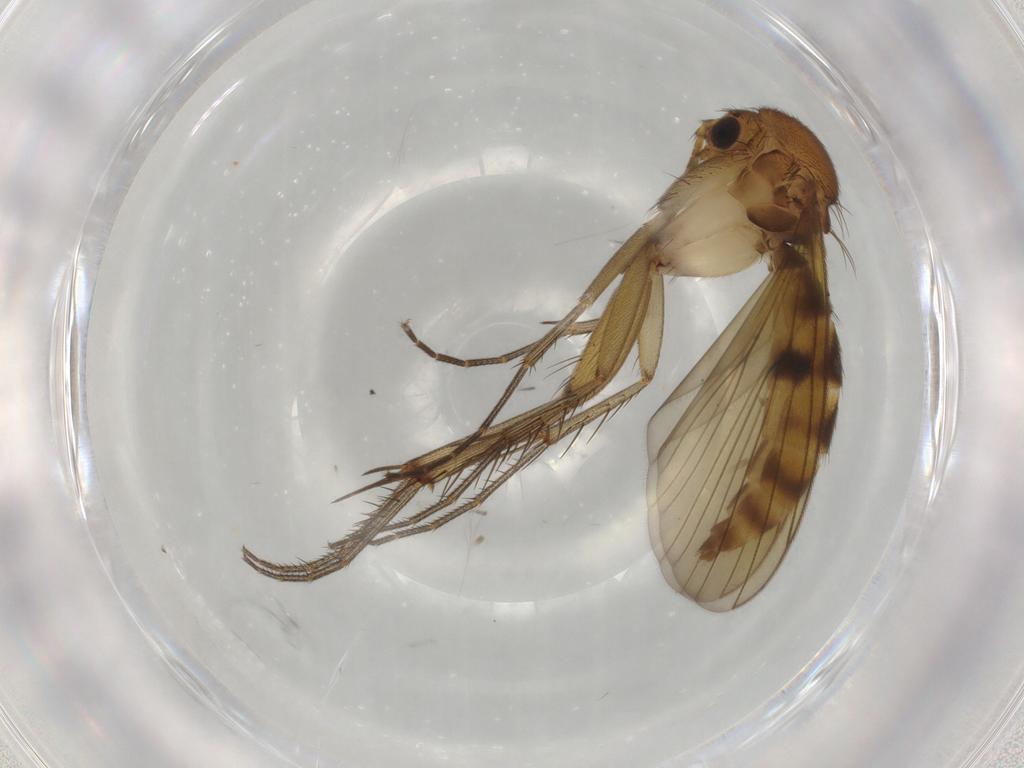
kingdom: Animalia
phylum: Arthropoda
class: Insecta
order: Diptera
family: Mycetophilidae
